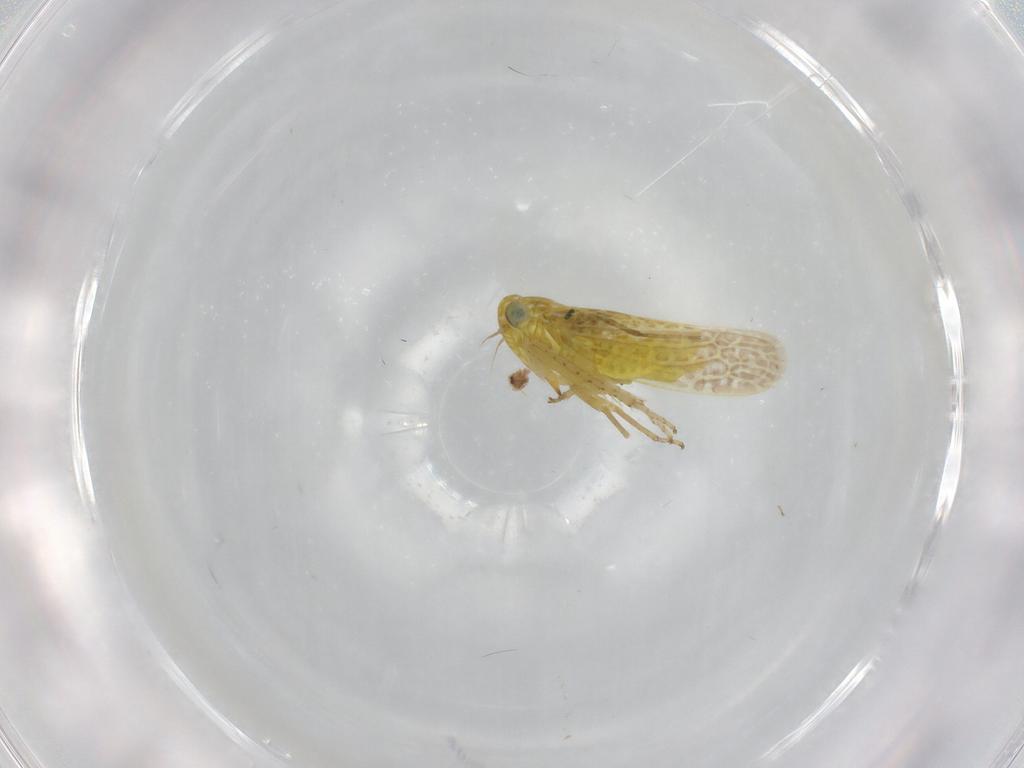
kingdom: Animalia
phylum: Arthropoda
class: Insecta
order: Hemiptera
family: Cicadellidae
